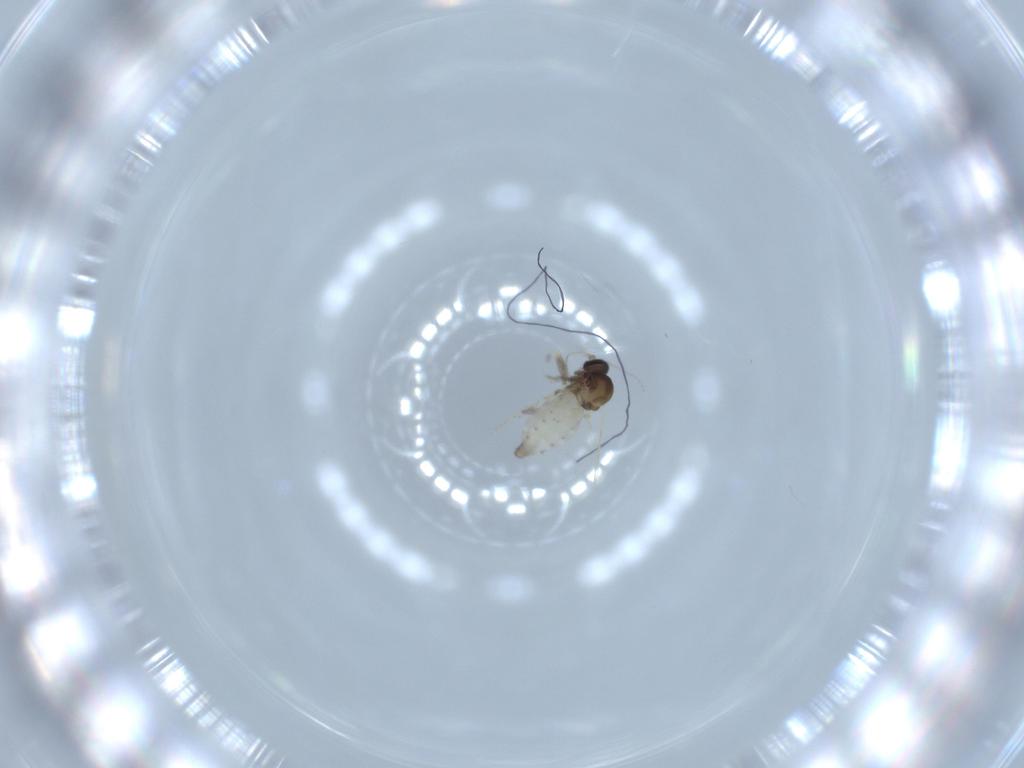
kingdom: Animalia
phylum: Arthropoda
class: Insecta
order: Diptera
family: Ceratopogonidae
